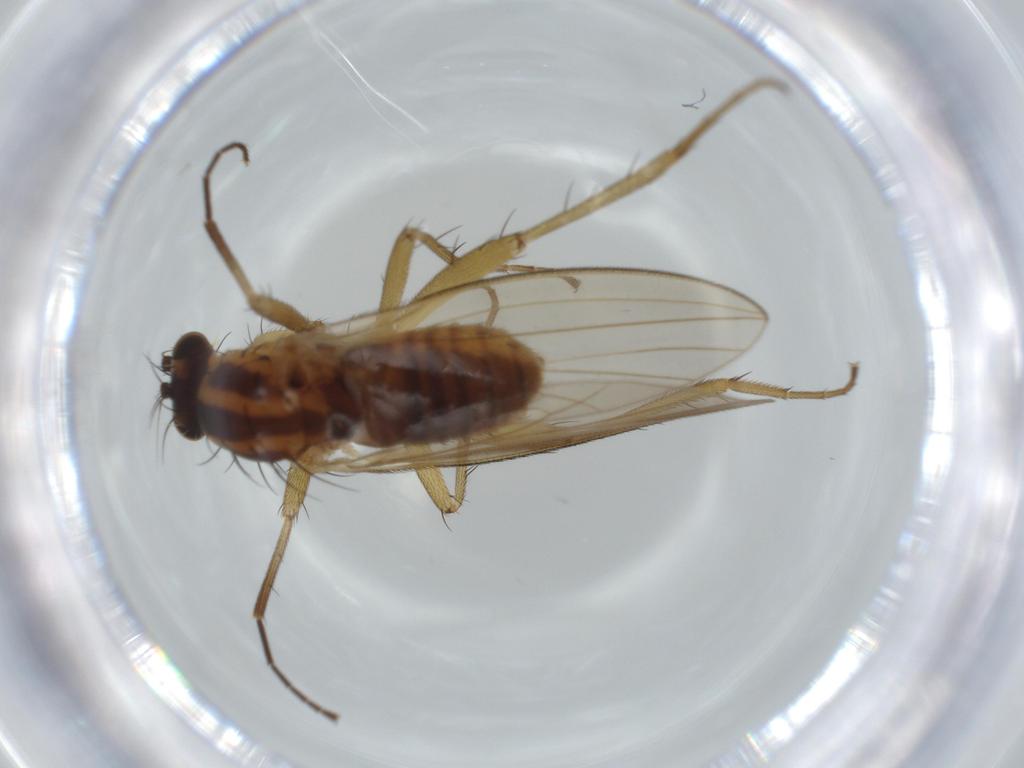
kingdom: Animalia
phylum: Arthropoda
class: Insecta
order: Diptera
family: Lonchopteridae
